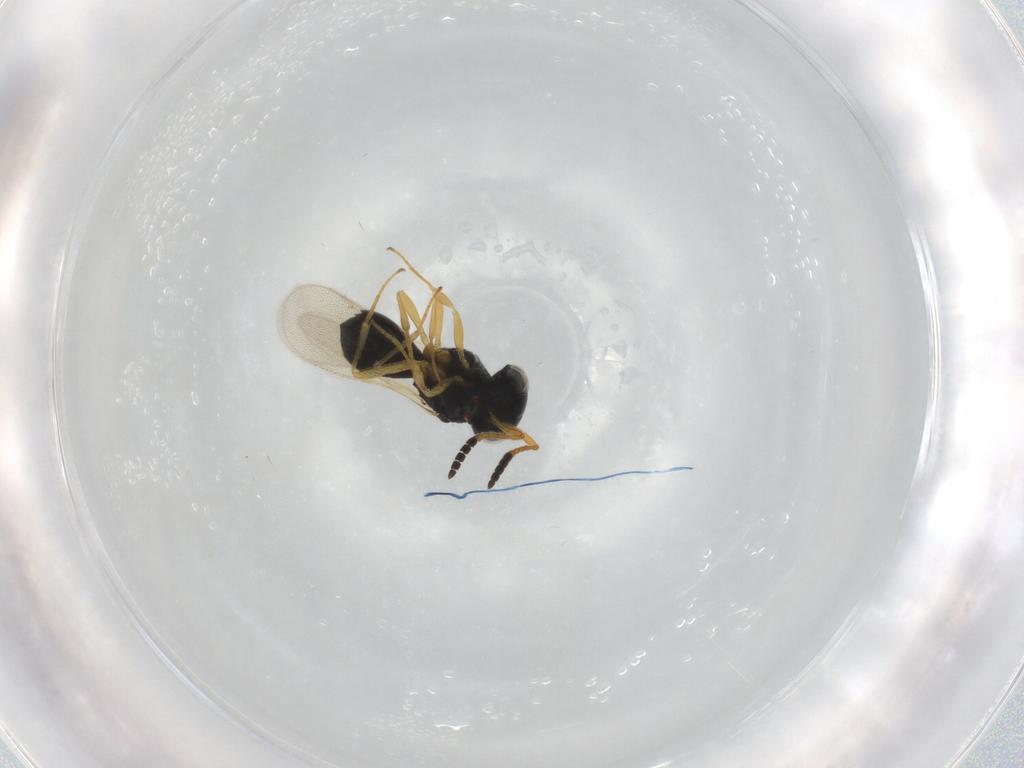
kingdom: Animalia
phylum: Arthropoda
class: Insecta
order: Hymenoptera
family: Scelionidae
